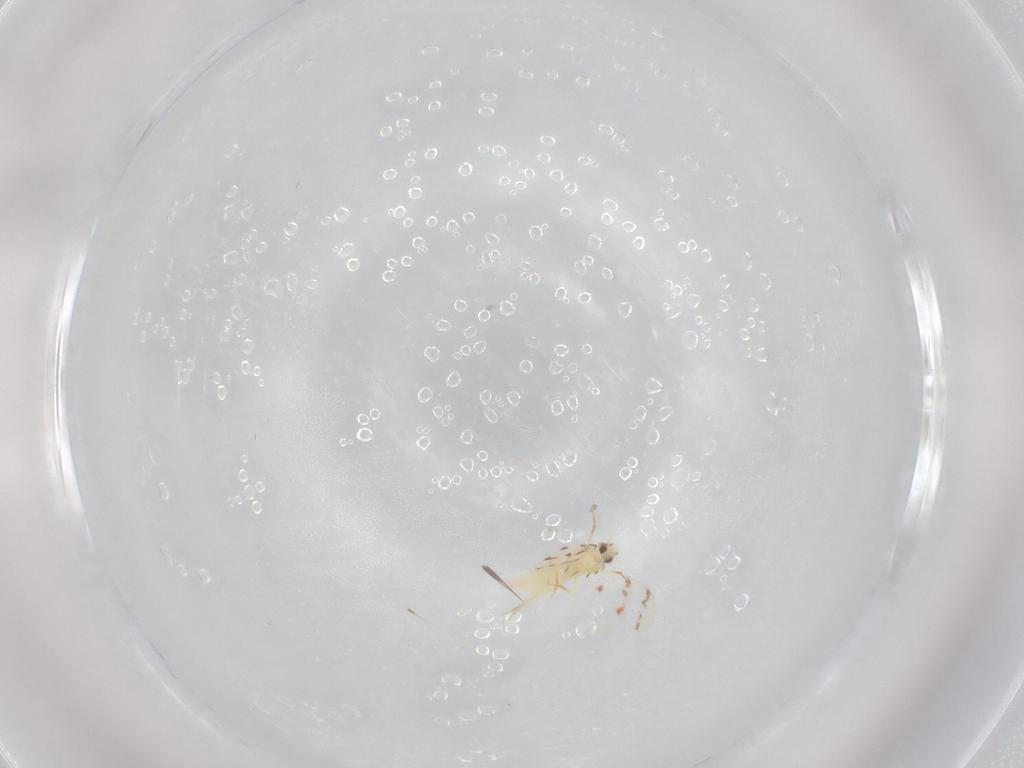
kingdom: Animalia
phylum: Arthropoda
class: Insecta
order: Hemiptera
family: Aleyrodidae
